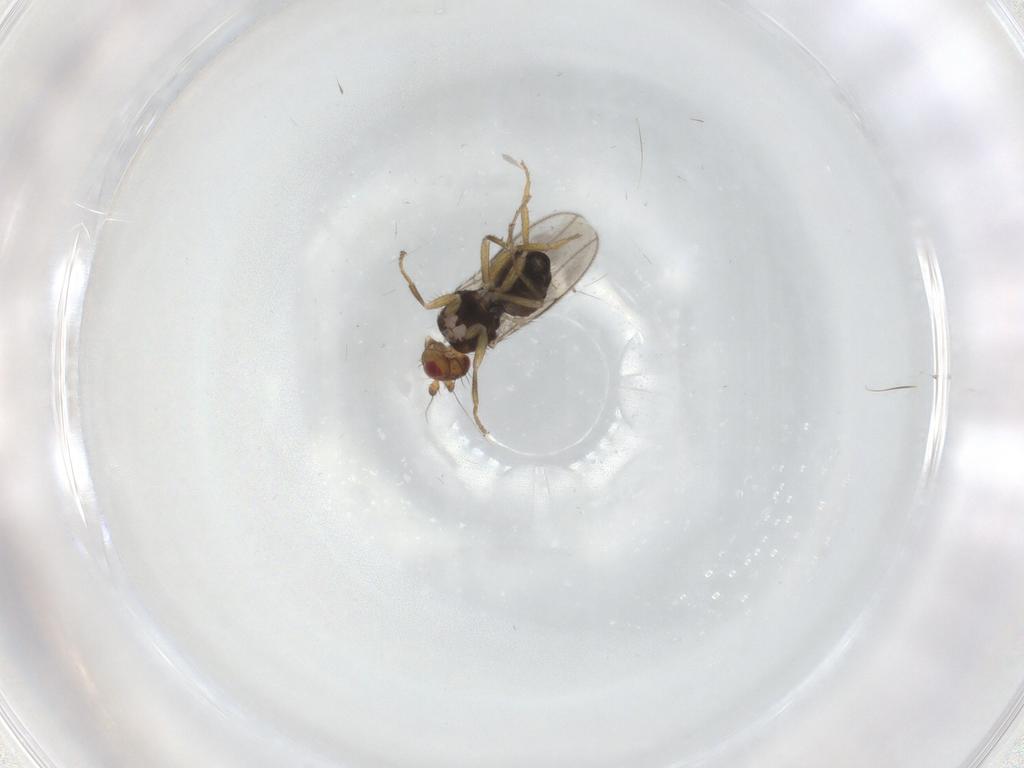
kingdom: Animalia
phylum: Arthropoda
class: Insecta
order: Diptera
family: Sphaeroceridae
